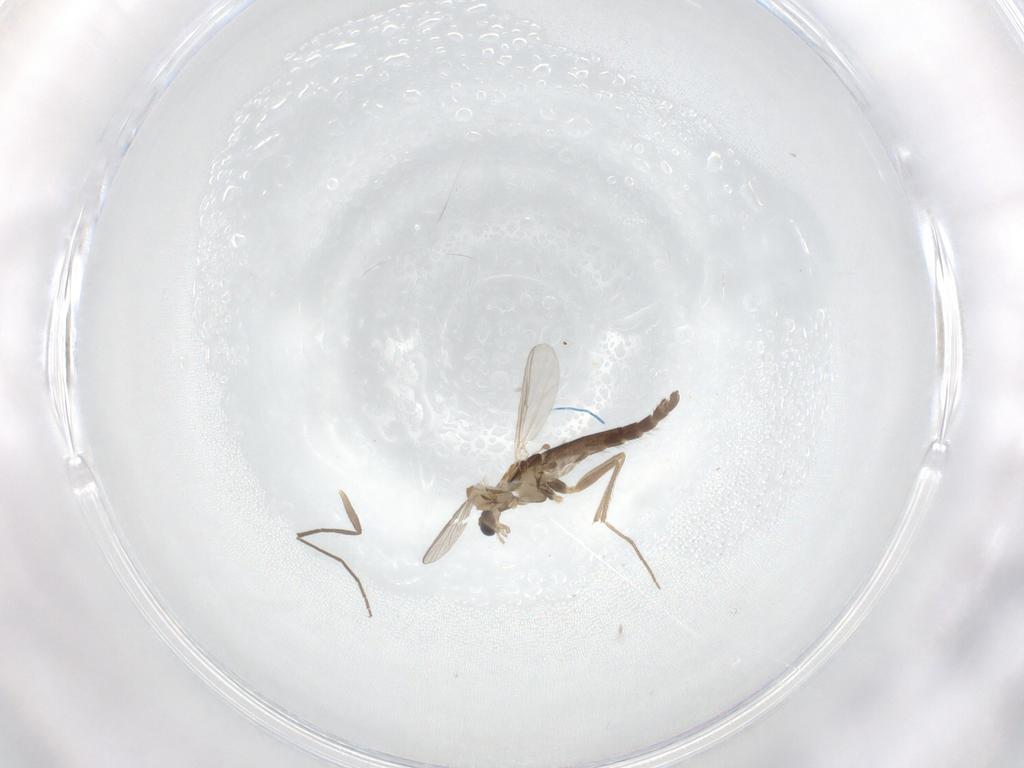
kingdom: Animalia
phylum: Arthropoda
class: Insecta
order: Diptera
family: Chironomidae
